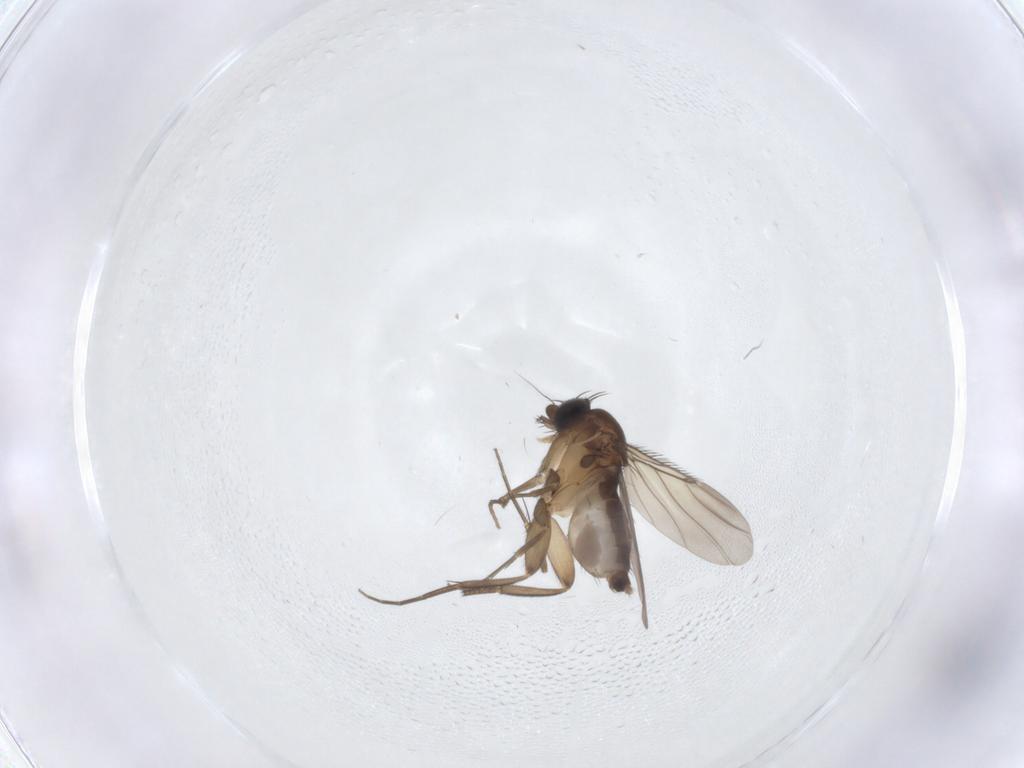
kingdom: Animalia
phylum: Arthropoda
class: Insecta
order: Diptera
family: Phoridae
